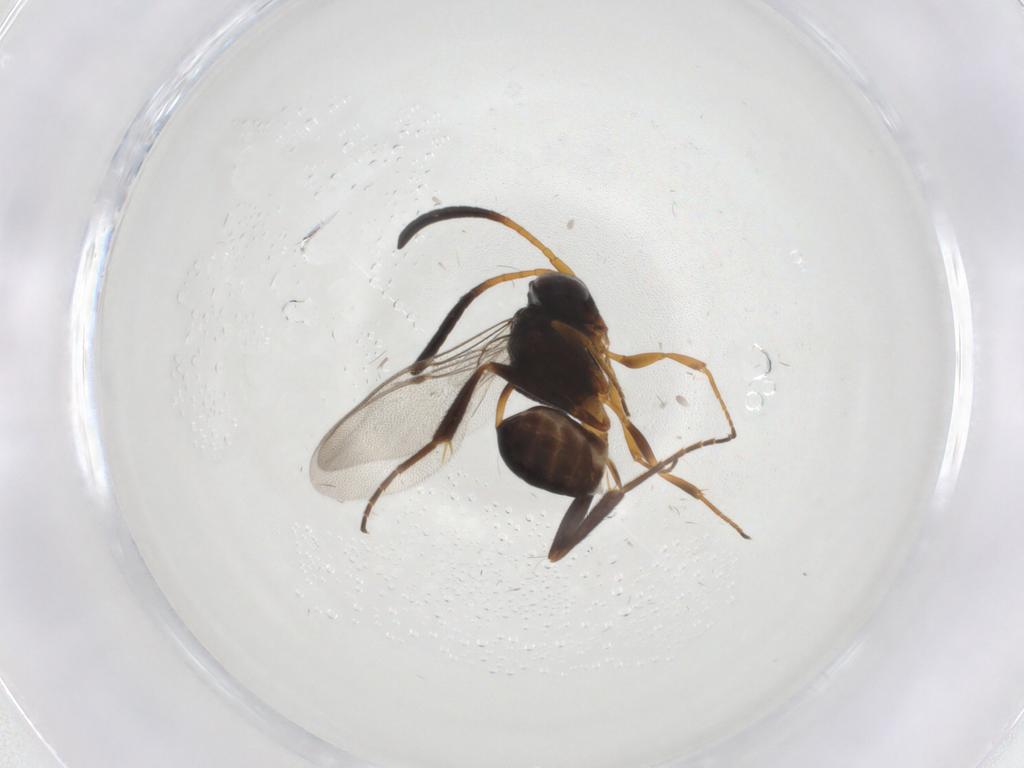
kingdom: Animalia
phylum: Arthropoda
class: Insecta
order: Hymenoptera
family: Evaniidae
